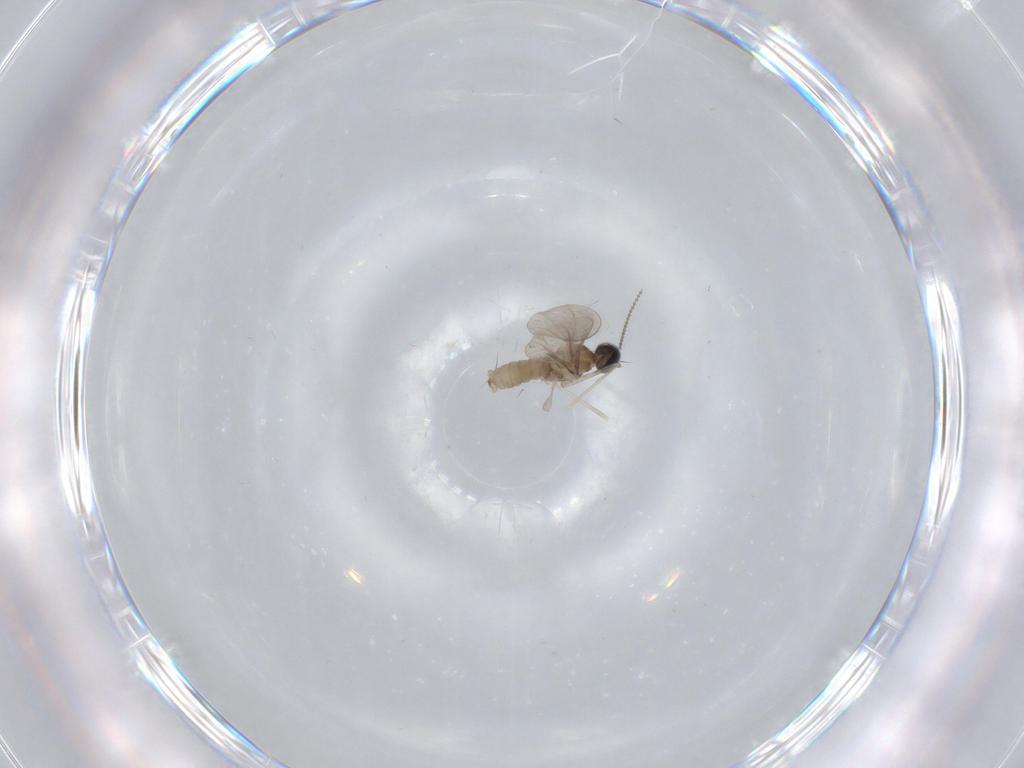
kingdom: Animalia
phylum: Arthropoda
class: Insecta
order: Diptera
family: Cecidomyiidae
